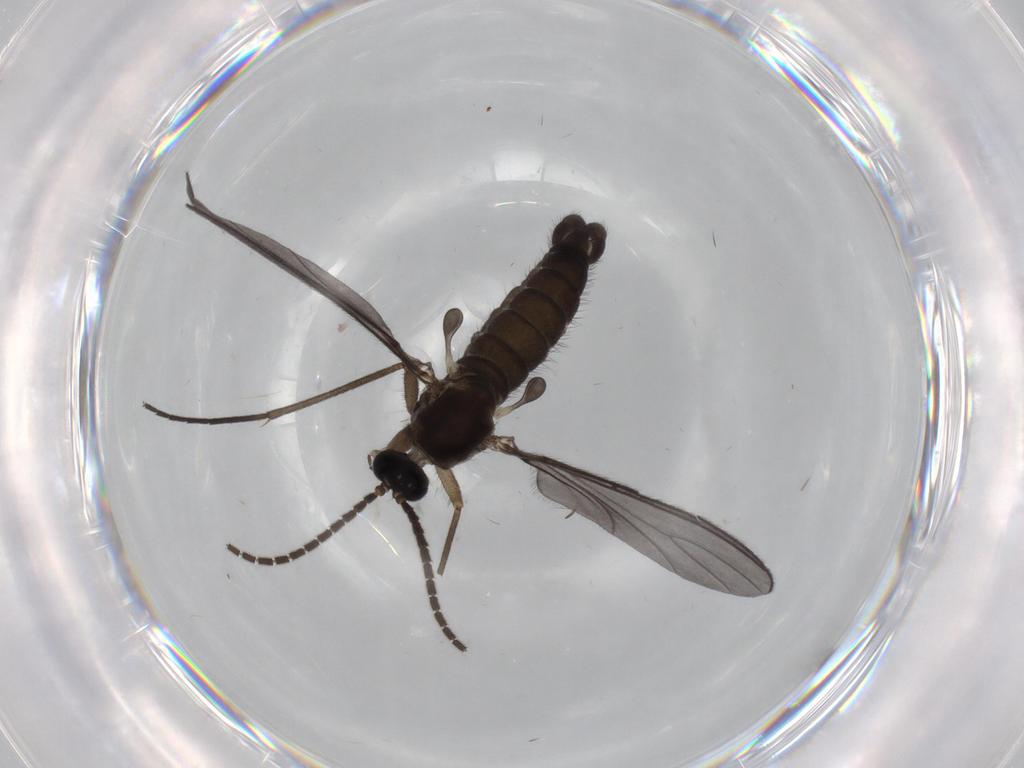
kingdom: Animalia
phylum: Arthropoda
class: Insecta
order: Diptera
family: Sciaridae
